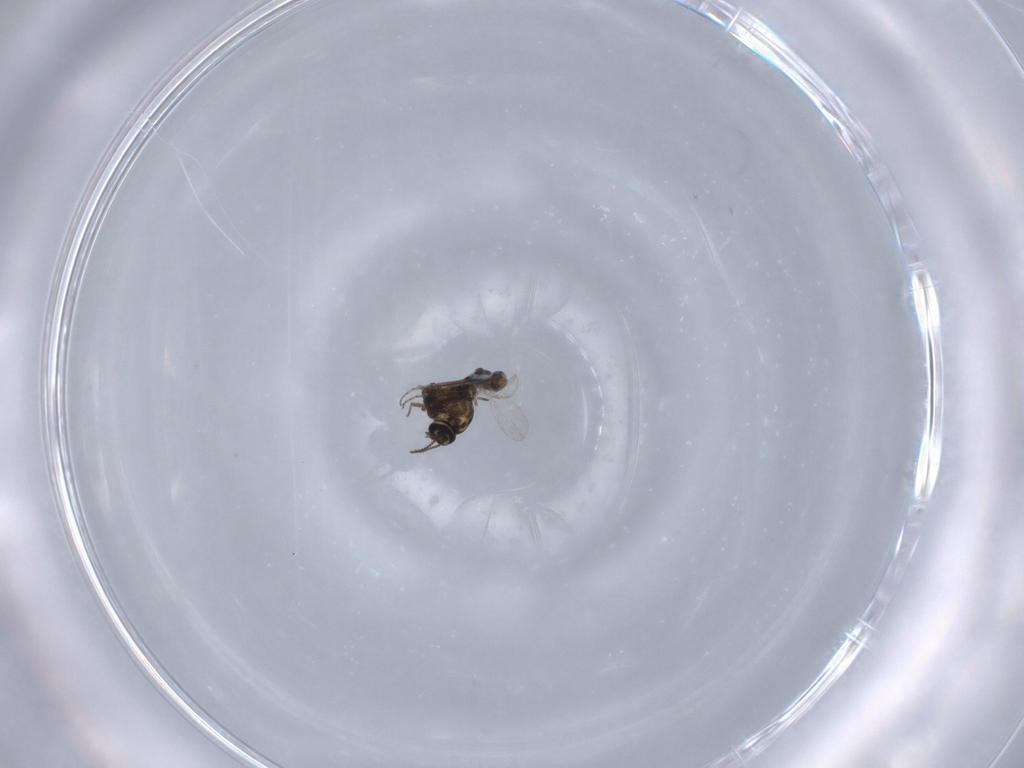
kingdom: Animalia
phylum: Arthropoda
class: Insecta
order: Diptera
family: Ceratopogonidae
